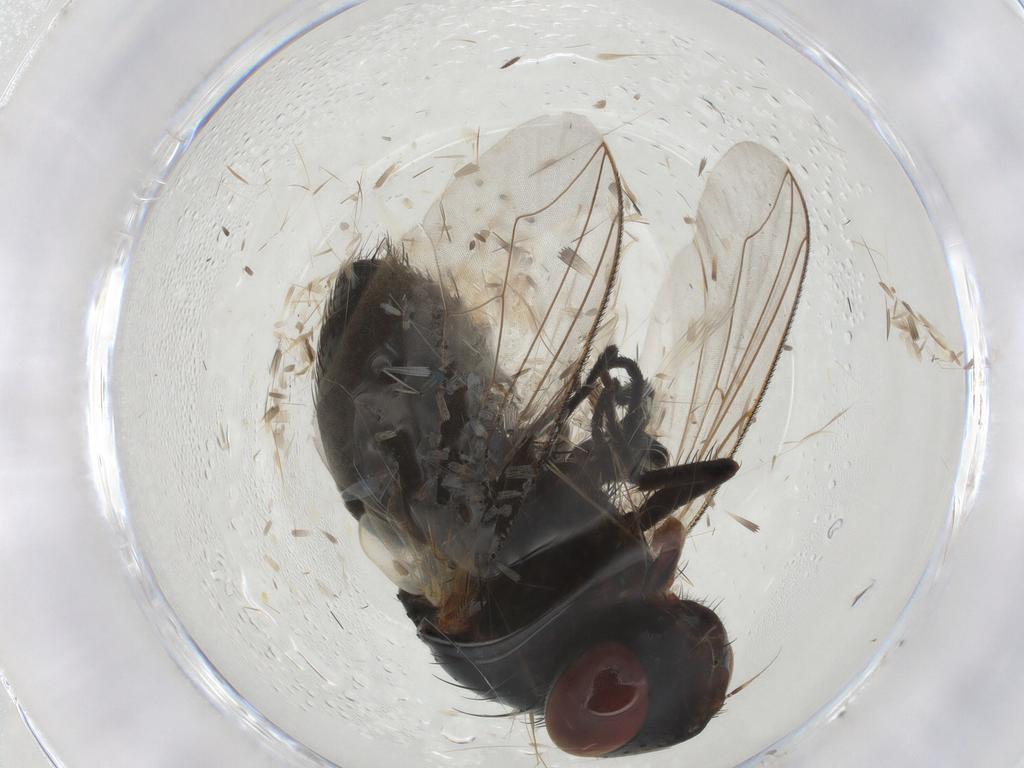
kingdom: Animalia
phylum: Arthropoda
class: Insecta
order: Diptera
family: Sarcophagidae
